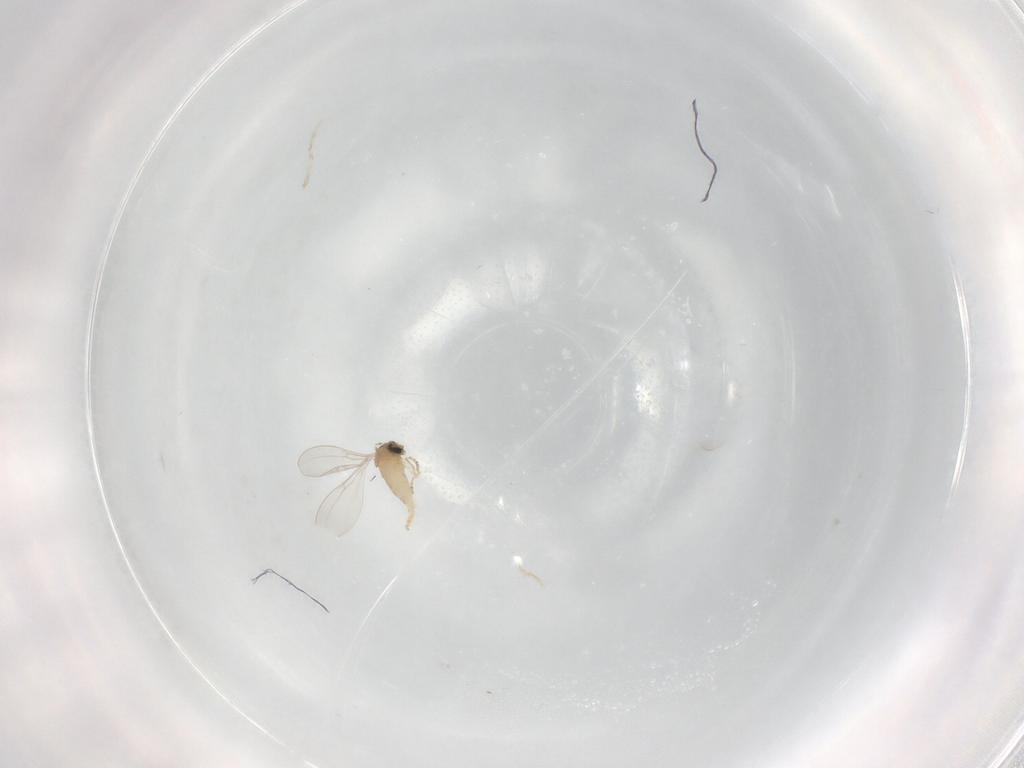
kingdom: Animalia
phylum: Arthropoda
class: Insecta
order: Diptera
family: Cecidomyiidae
